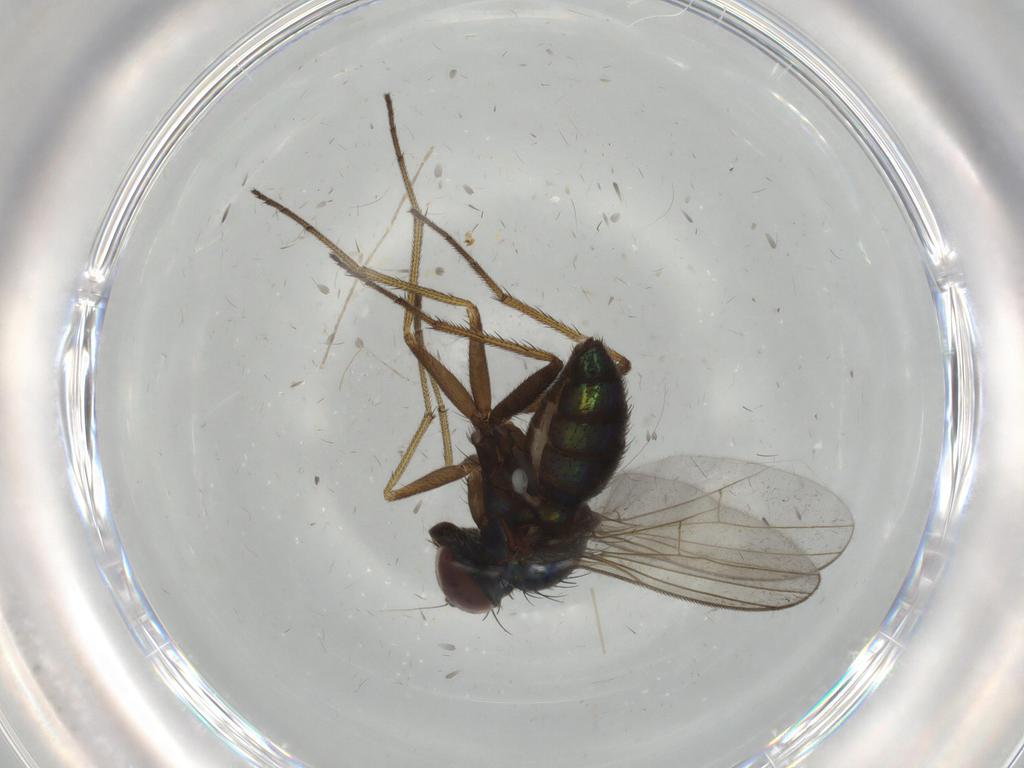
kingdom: Animalia
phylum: Arthropoda
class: Insecta
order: Diptera
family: Dolichopodidae
